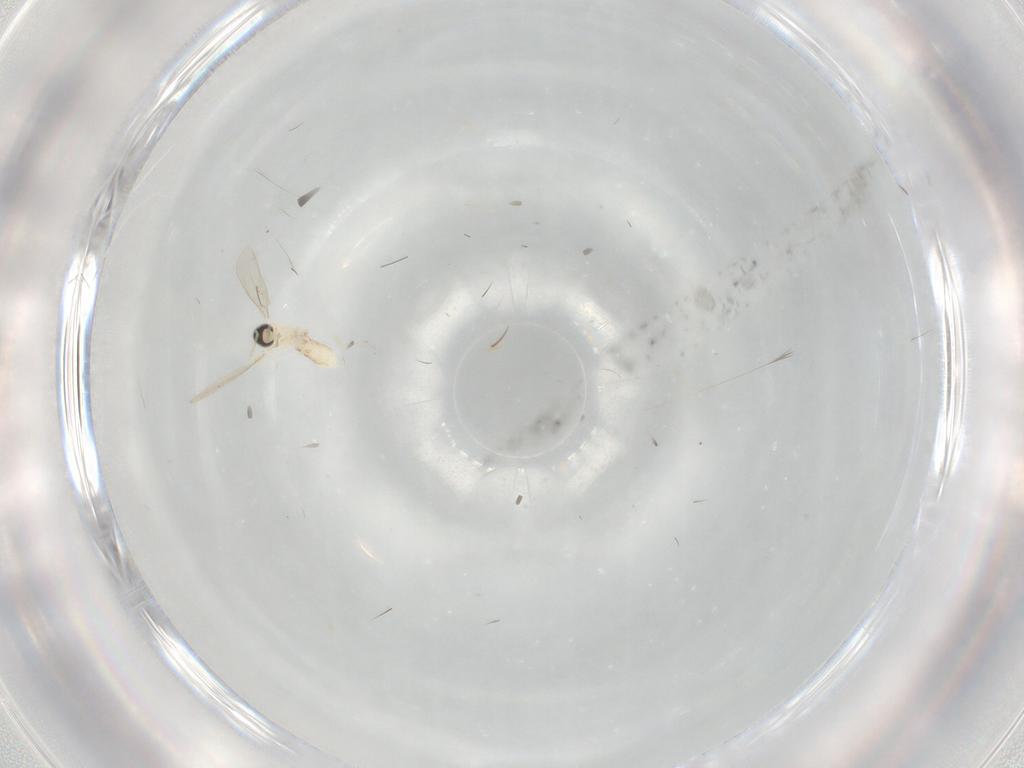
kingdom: Animalia
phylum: Arthropoda
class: Insecta
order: Diptera
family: Cecidomyiidae
